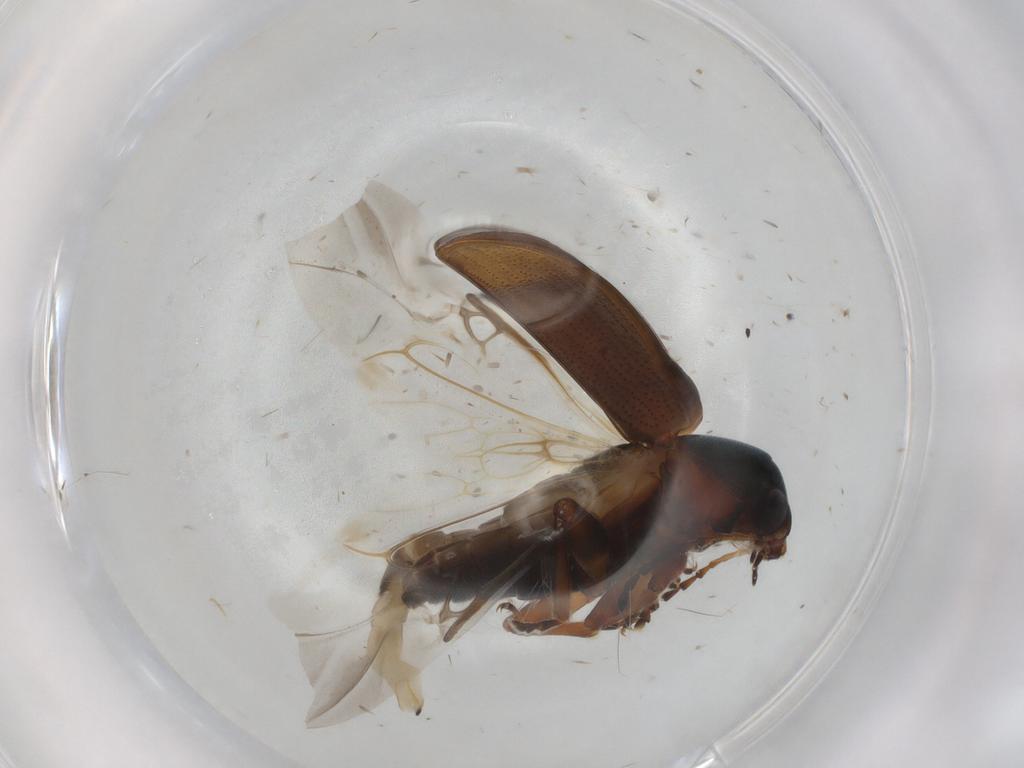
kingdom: Animalia
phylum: Arthropoda
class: Insecta
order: Coleoptera
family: Chrysomelidae
